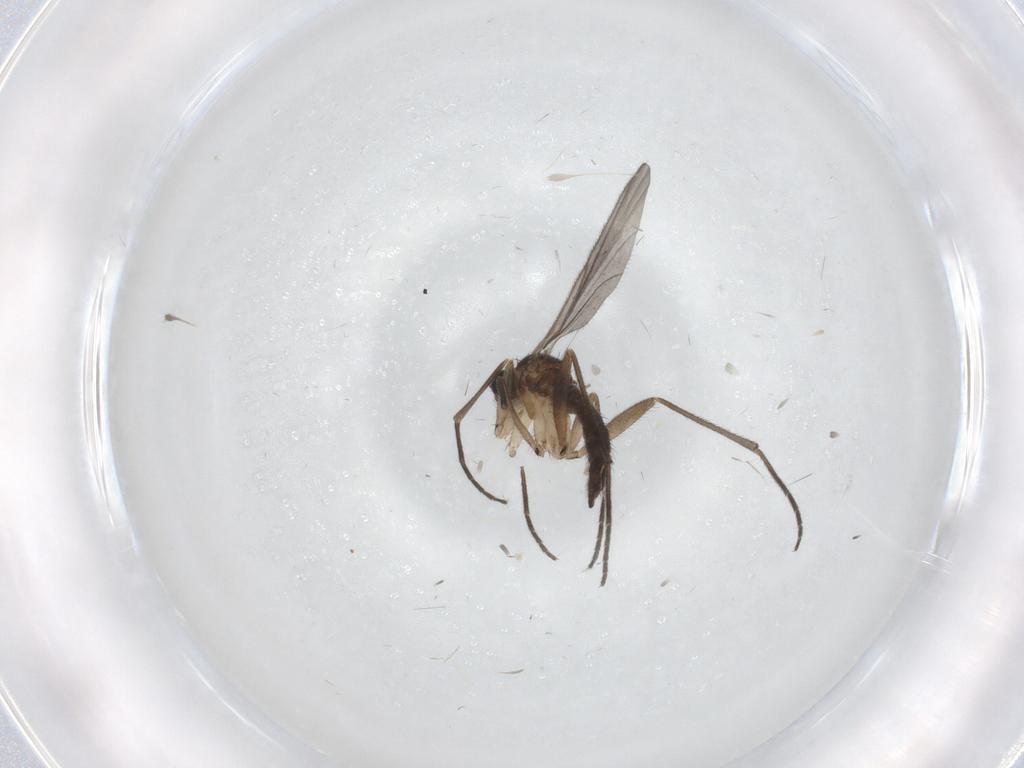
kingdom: Animalia
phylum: Arthropoda
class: Insecta
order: Diptera
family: Sciaridae
